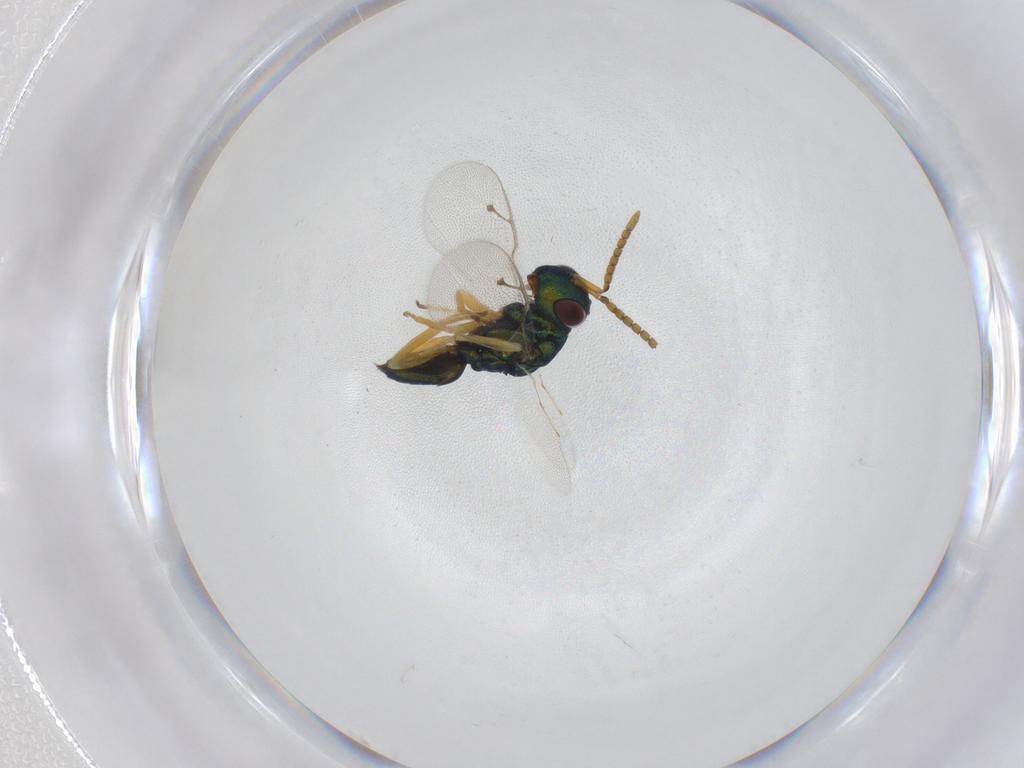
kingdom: Animalia
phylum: Arthropoda
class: Insecta
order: Hymenoptera
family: Pteromalidae
